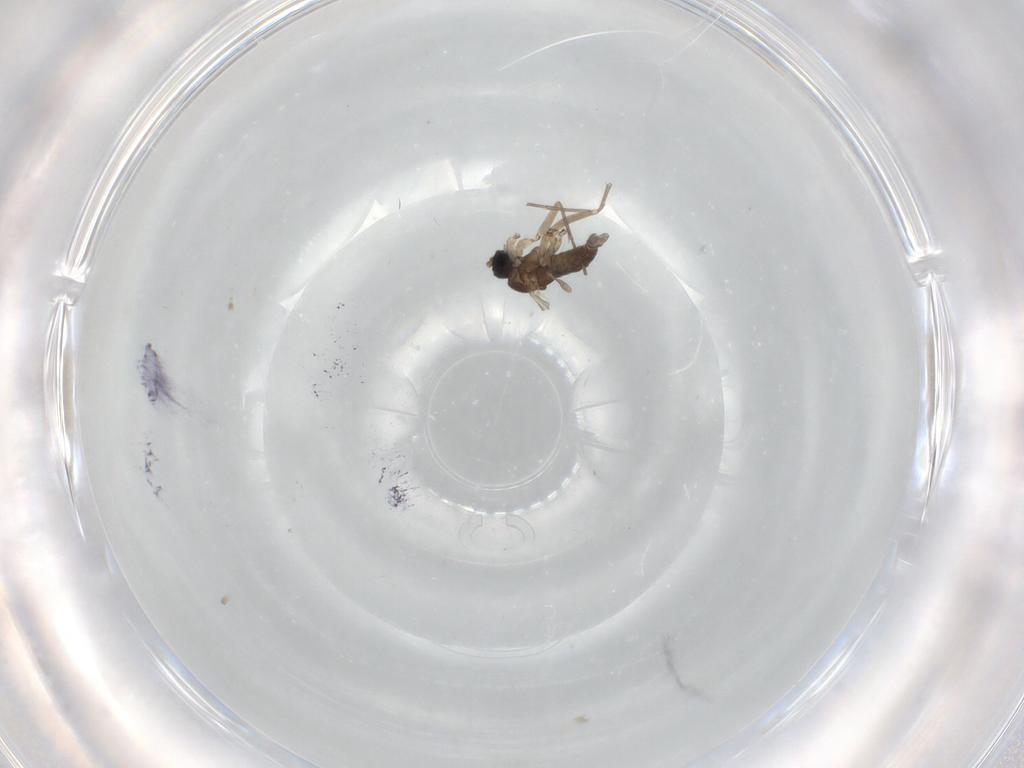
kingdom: Animalia
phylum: Arthropoda
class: Insecta
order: Diptera
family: Sciaridae
